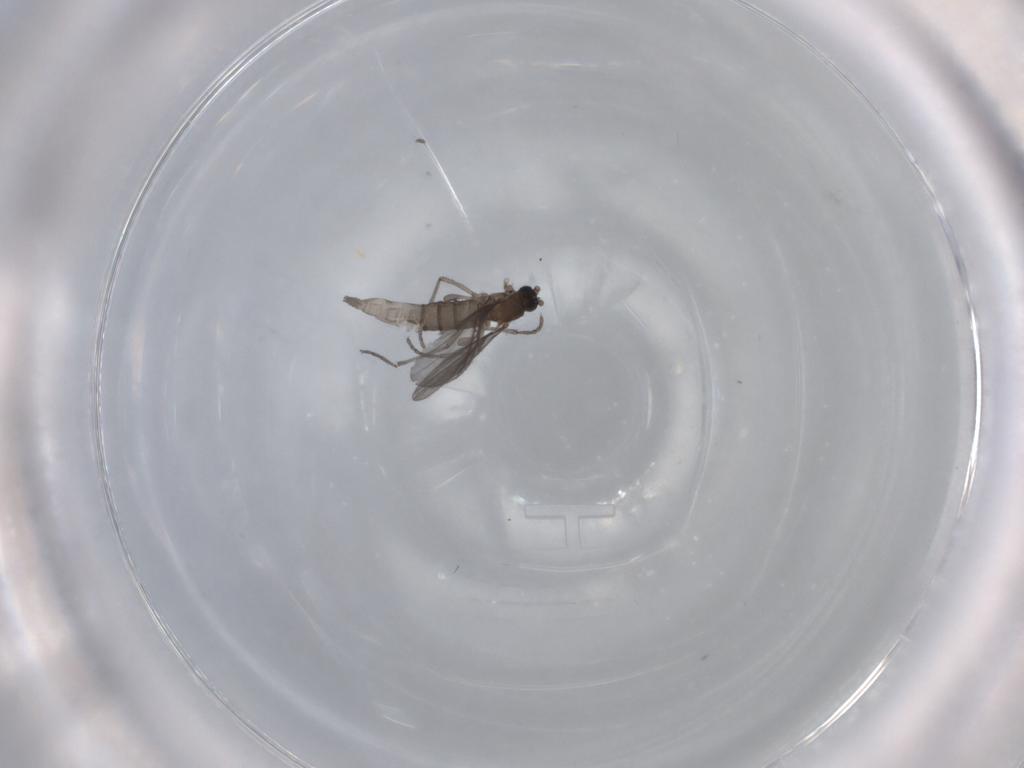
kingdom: Animalia
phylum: Arthropoda
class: Insecta
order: Diptera
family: Sciaridae
